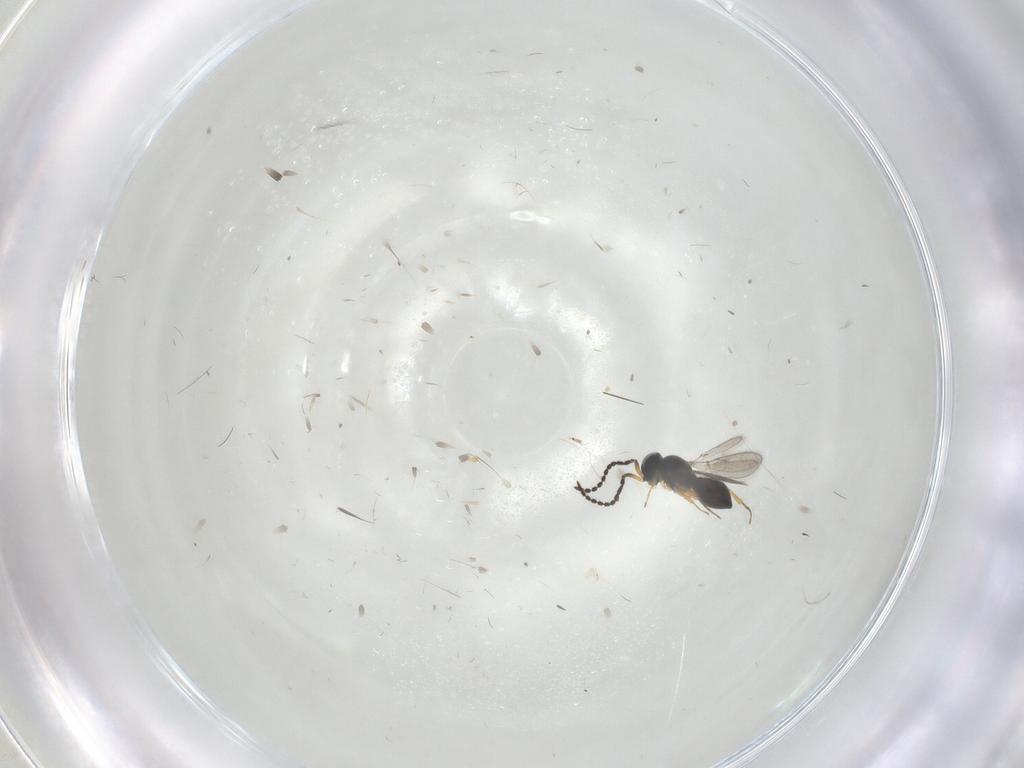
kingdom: Animalia
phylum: Arthropoda
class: Insecta
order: Hymenoptera
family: Scelionidae
